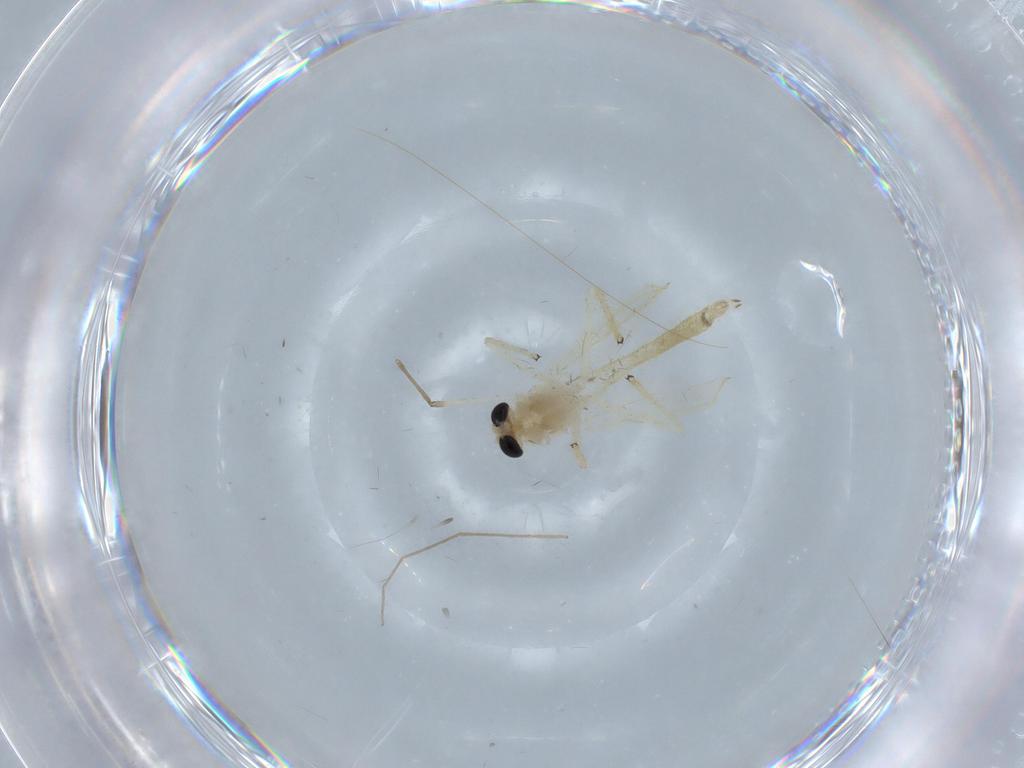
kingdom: Animalia
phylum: Arthropoda
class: Insecta
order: Diptera
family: Chironomidae
